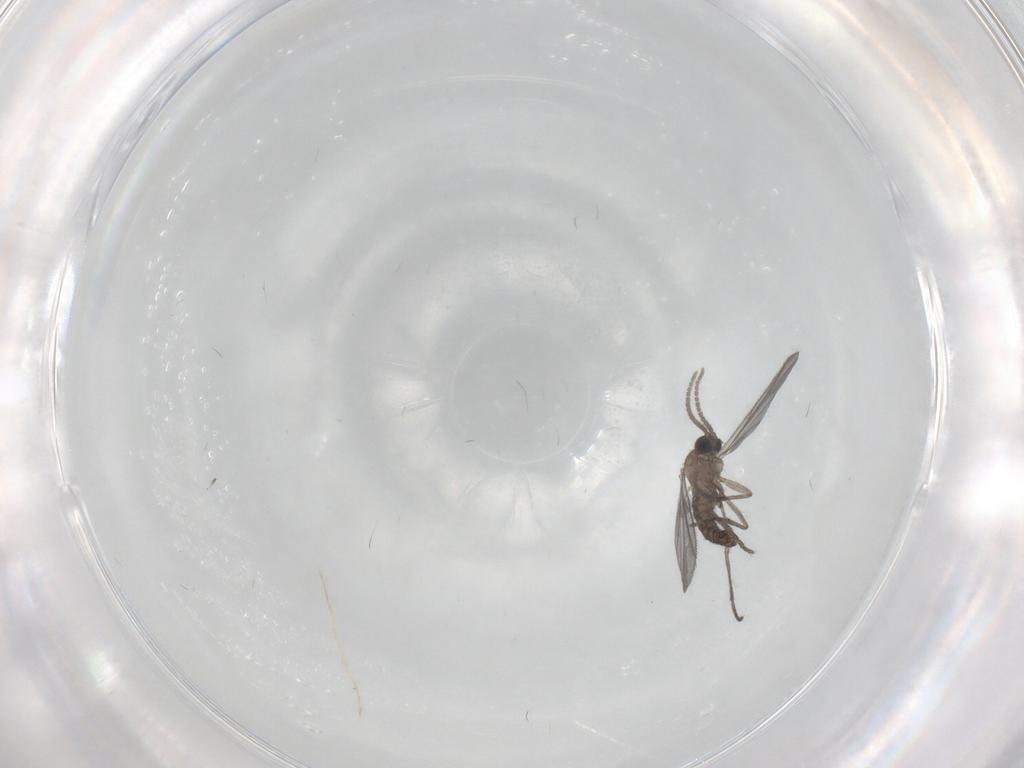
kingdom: Animalia
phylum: Arthropoda
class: Insecta
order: Diptera
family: Sciaridae
